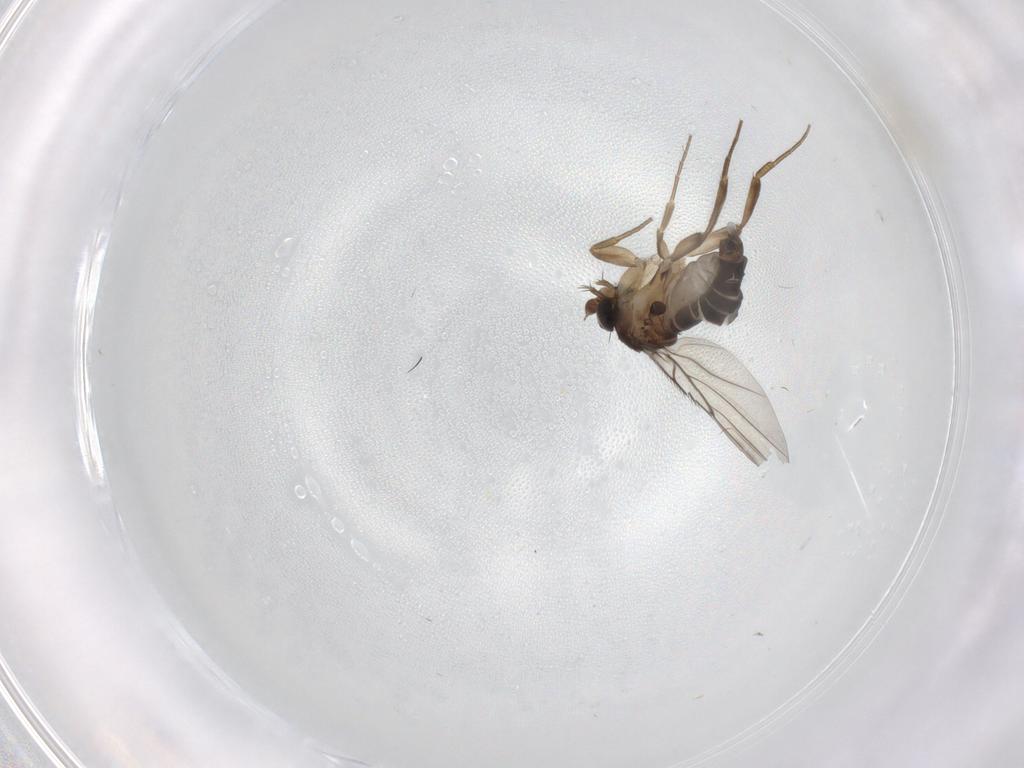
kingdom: Animalia
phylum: Arthropoda
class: Insecta
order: Diptera
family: Phoridae
